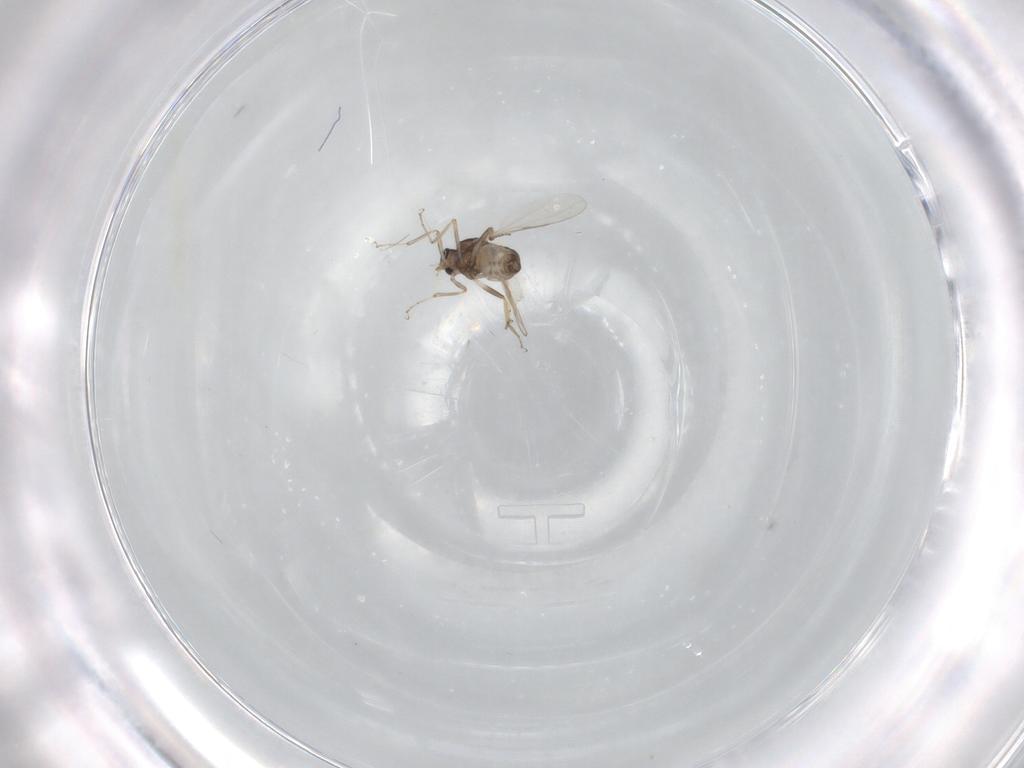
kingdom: Animalia
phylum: Arthropoda
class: Insecta
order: Diptera
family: Ceratopogonidae
